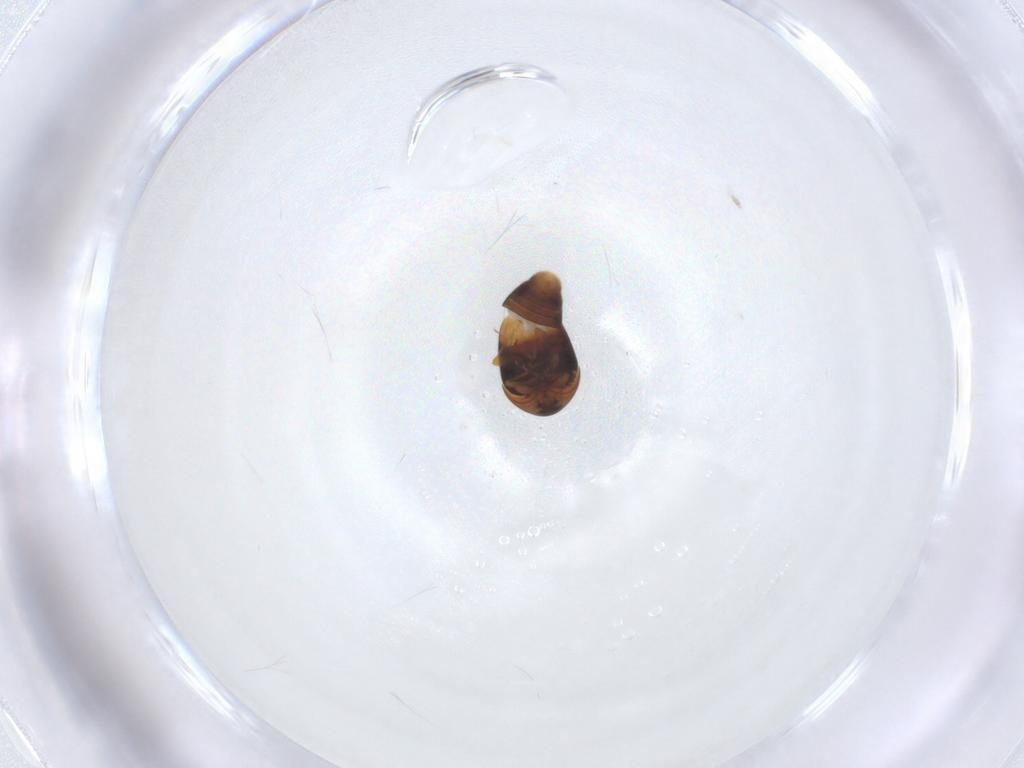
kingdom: Animalia
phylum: Arthropoda
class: Insecta
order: Coleoptera
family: Corylophidae
